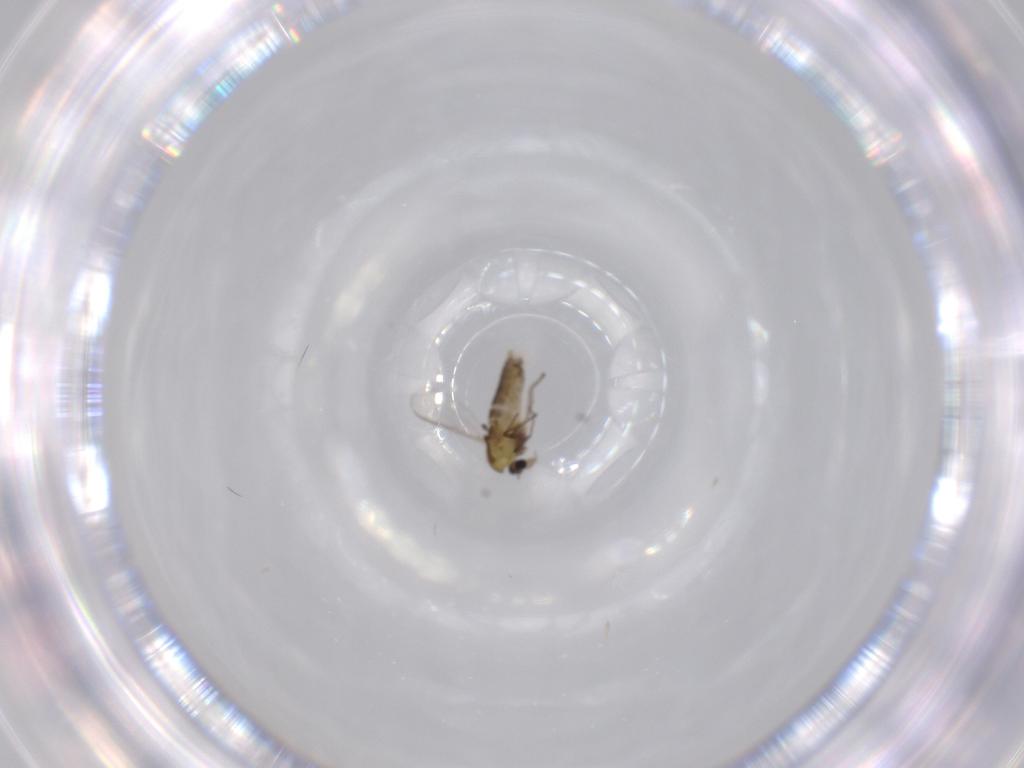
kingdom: Animalia
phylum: Arthropoda
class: Insecta
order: Diptera
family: Chironomidae
